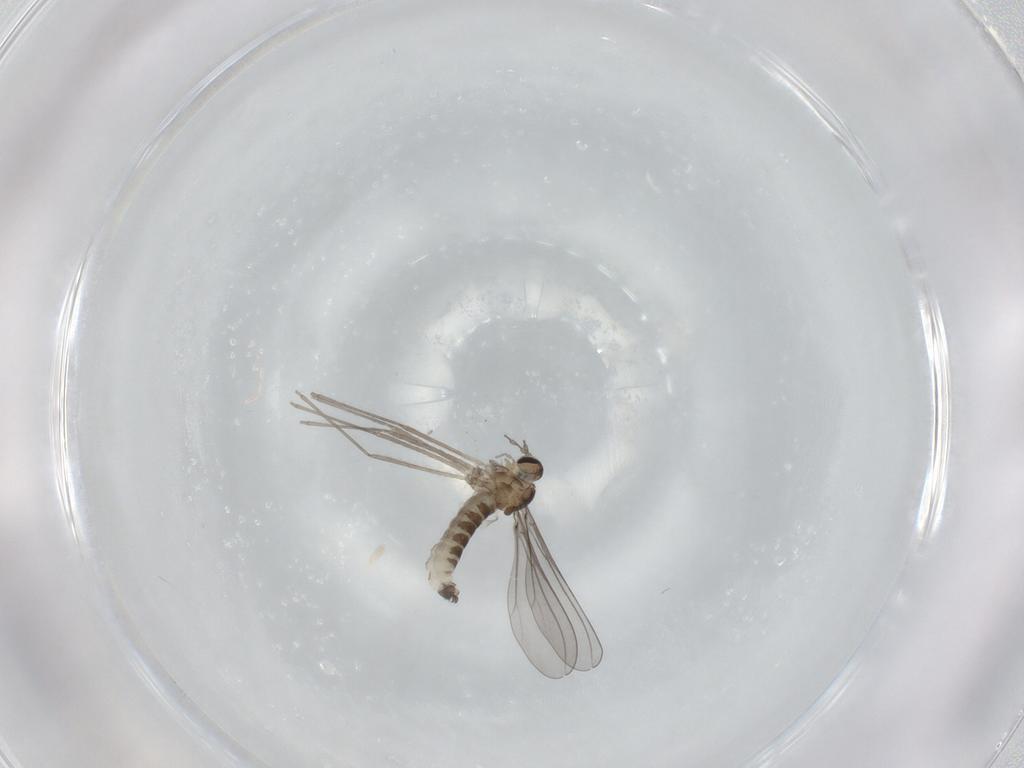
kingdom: Animalia
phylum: Arthropoda
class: Insecta
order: Diptera
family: Cecidomyiidae
